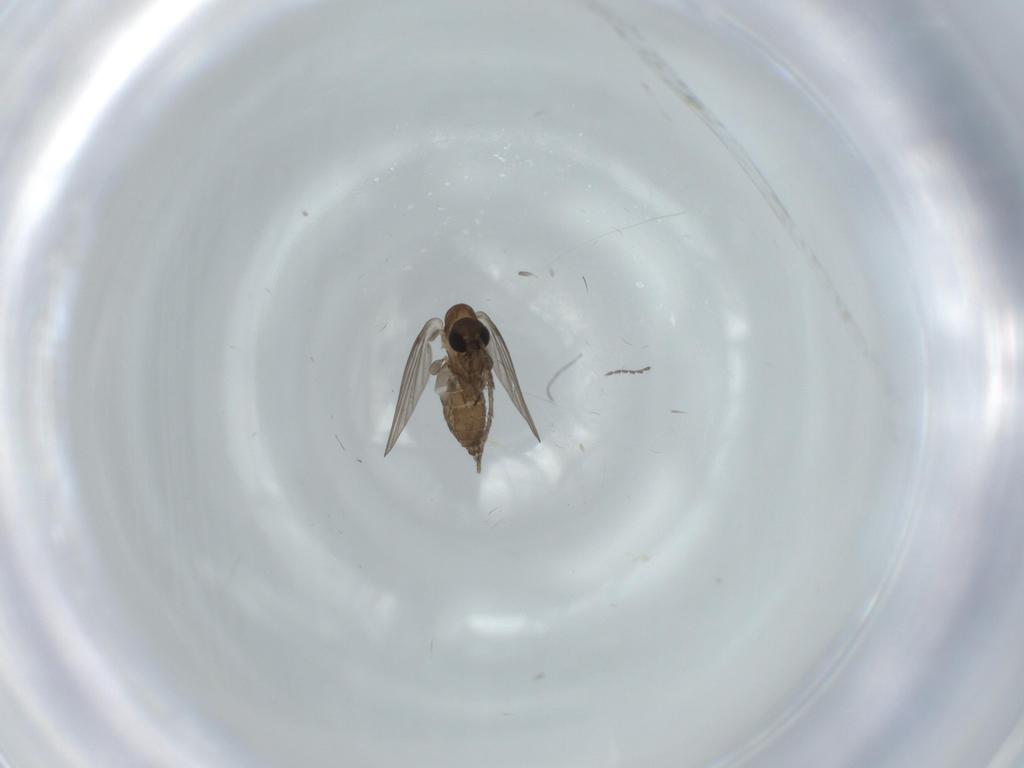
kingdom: Animalia
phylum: Arthropoda
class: Insecta
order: Diptera
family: Psychodidae
